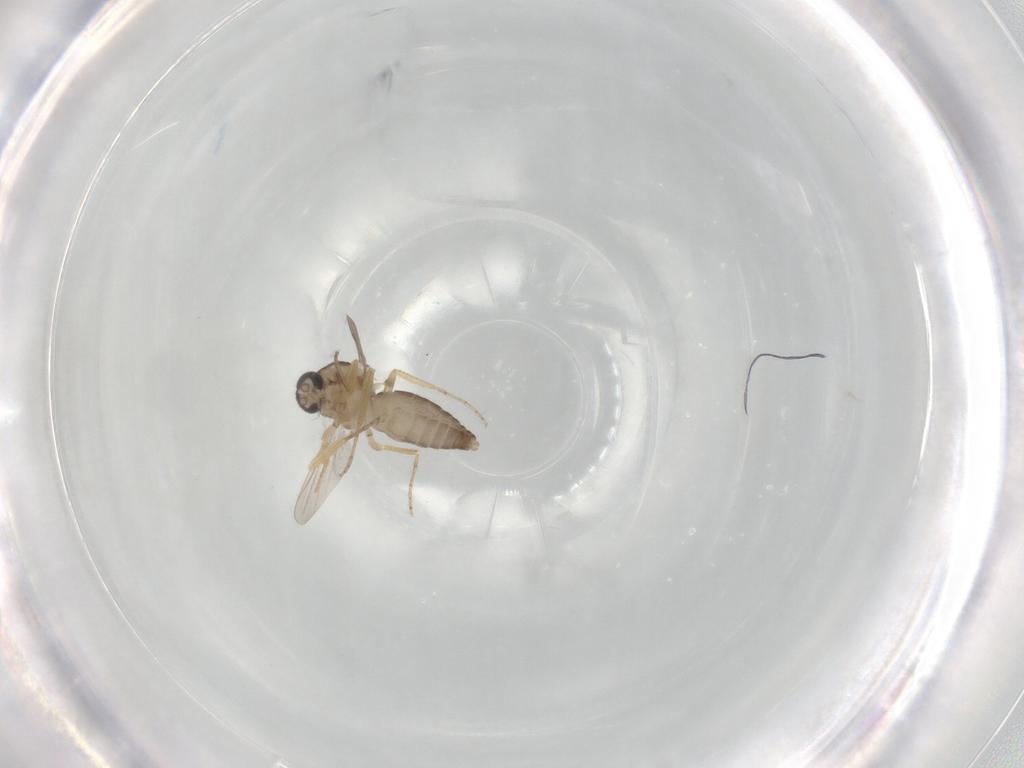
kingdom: Animalia
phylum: Arthropoda
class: Insecta
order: Diptera
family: Ceratopogonidae
